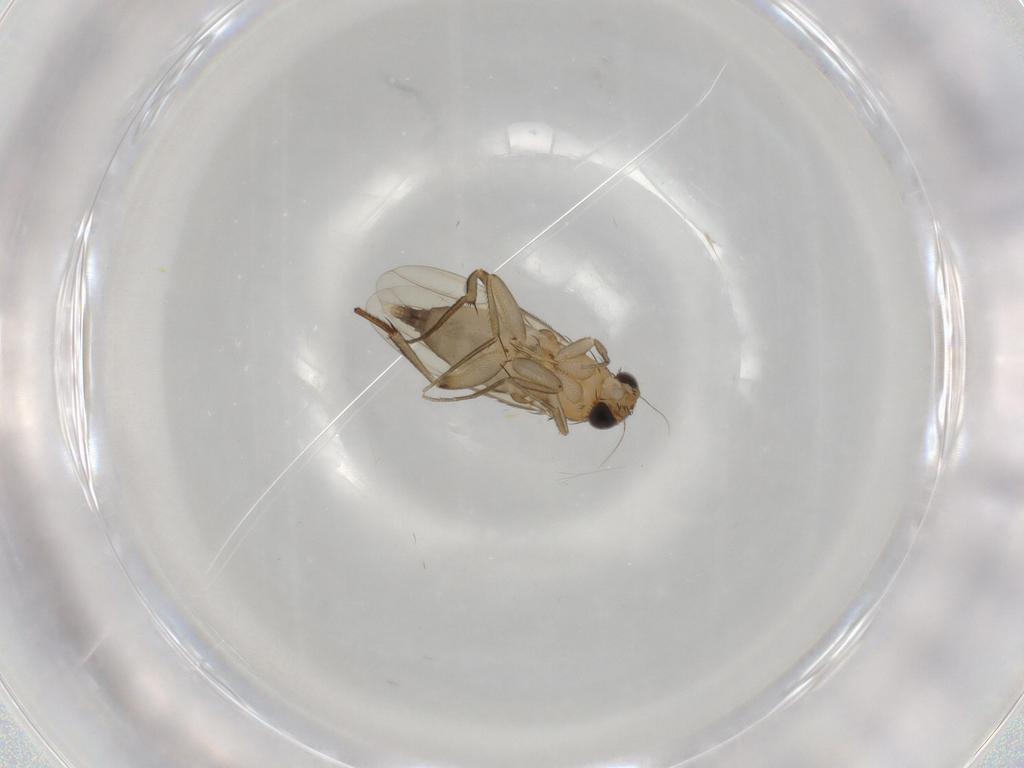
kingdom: Animalia
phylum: Arthropoda
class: Insecta
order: Diptera
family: Phoridae
